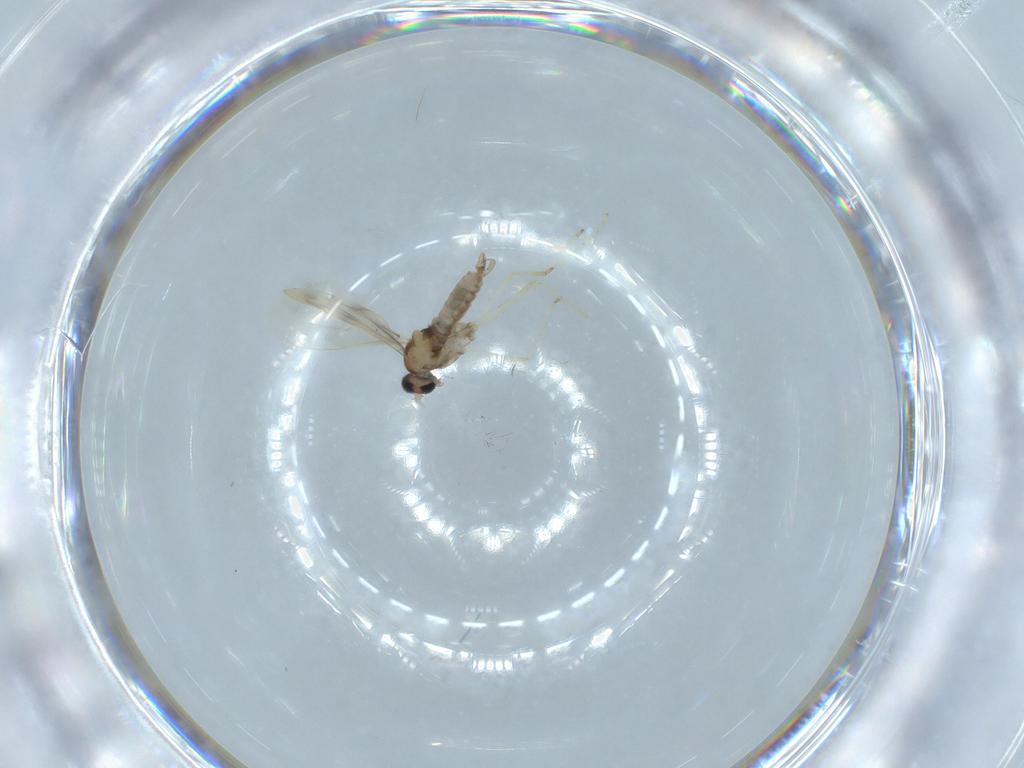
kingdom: Animalia
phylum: Arthropoda
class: Insecta
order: Diptera
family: Cecidomyiidae
